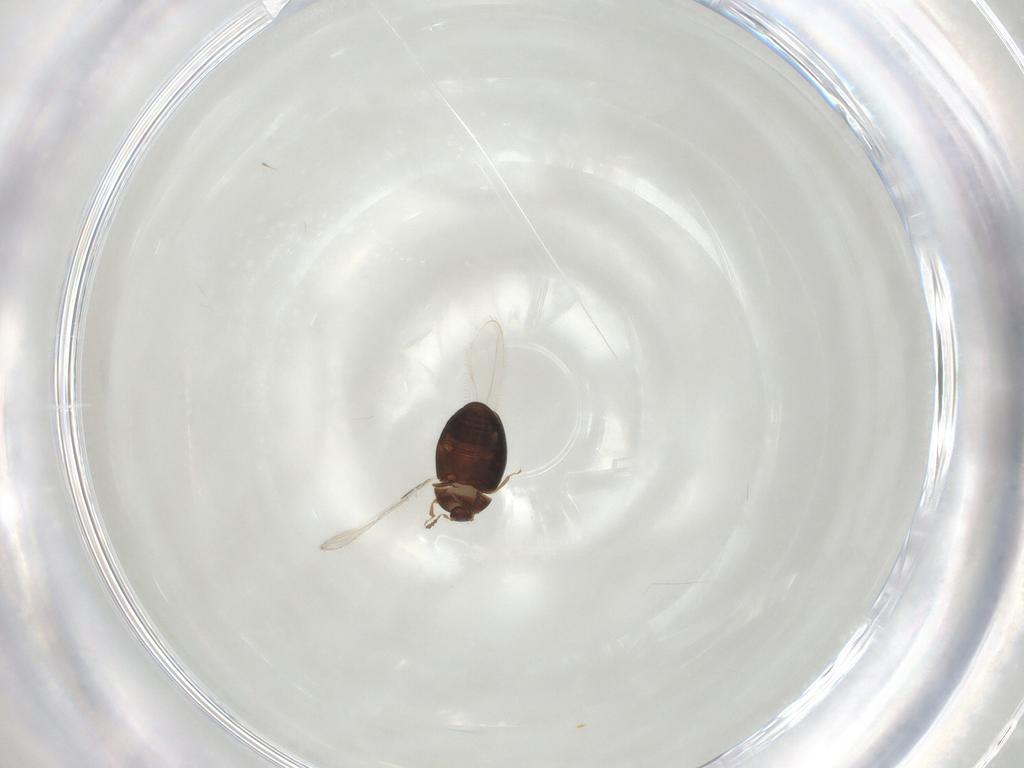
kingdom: Animalia
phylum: Arthropoda
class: Insecta
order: Coleoptera
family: Corylophidae
